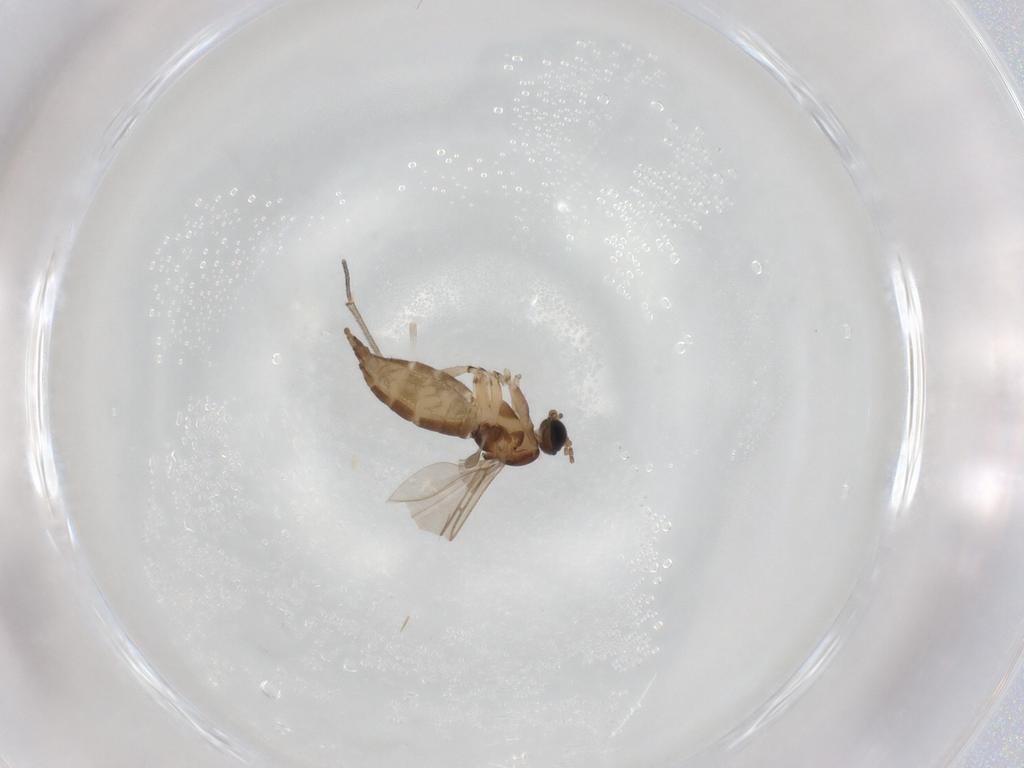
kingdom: Animalia
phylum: Arthropoda
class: Insecta
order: Diptera
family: Sciaridae
